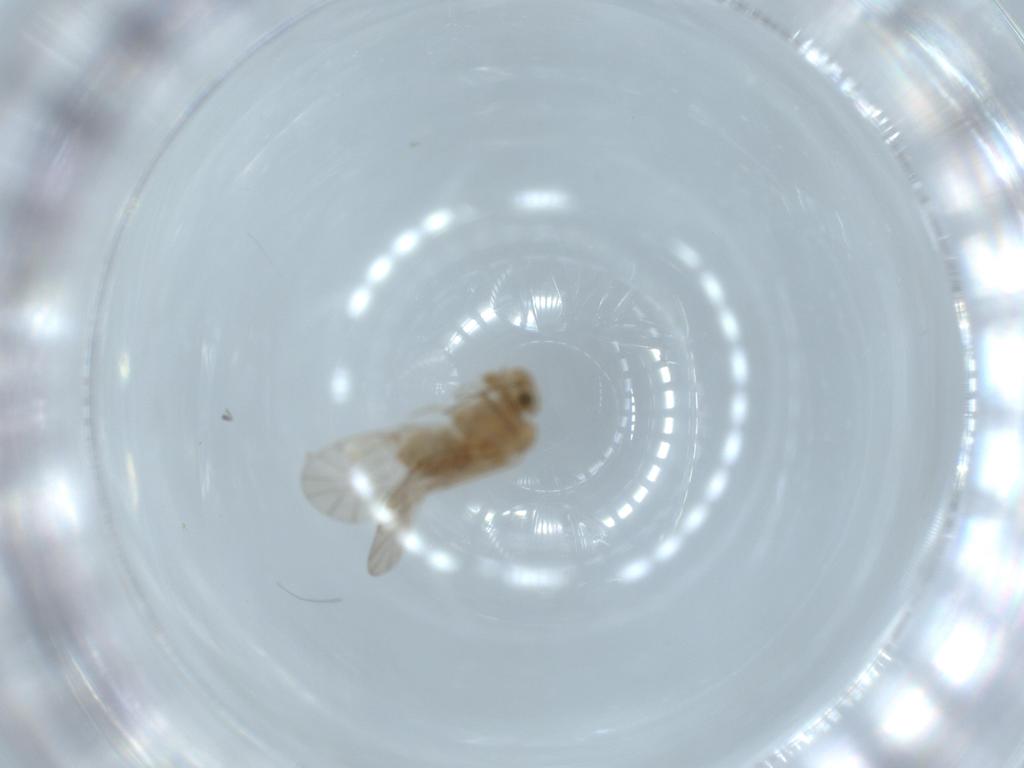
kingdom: Animalia
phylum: Arthropoda
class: Insecta
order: Psocodea
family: Lachesillidae
